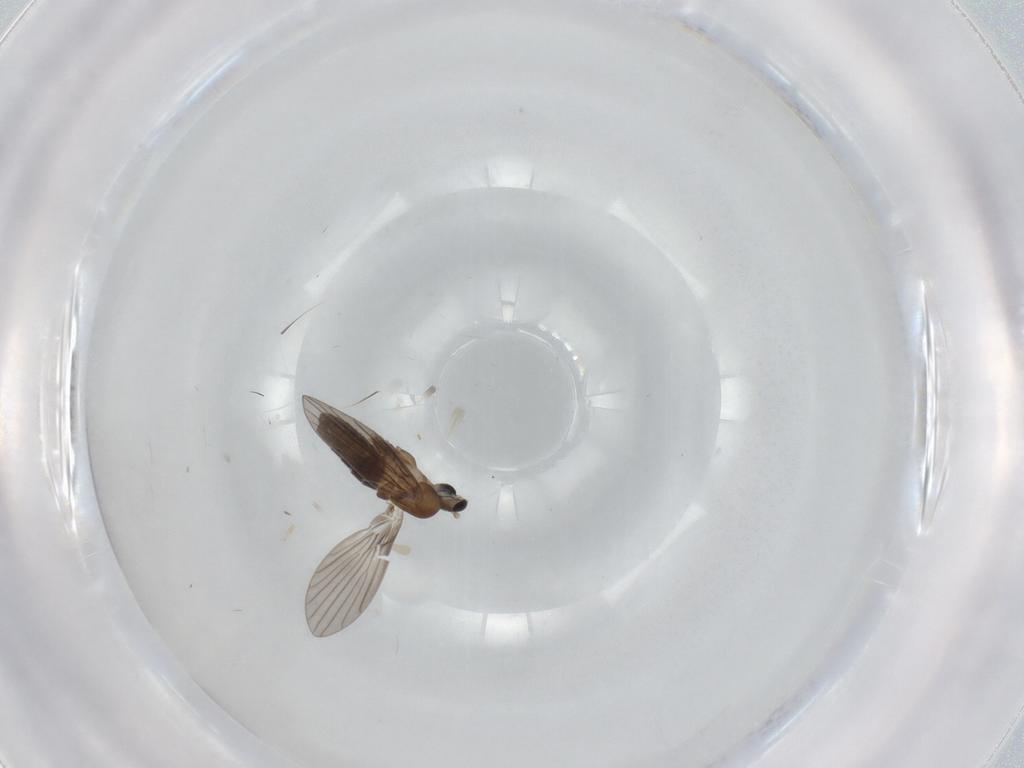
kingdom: Animalia
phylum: Arthropoda
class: Insecta
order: Diptera
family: Psychodidae
